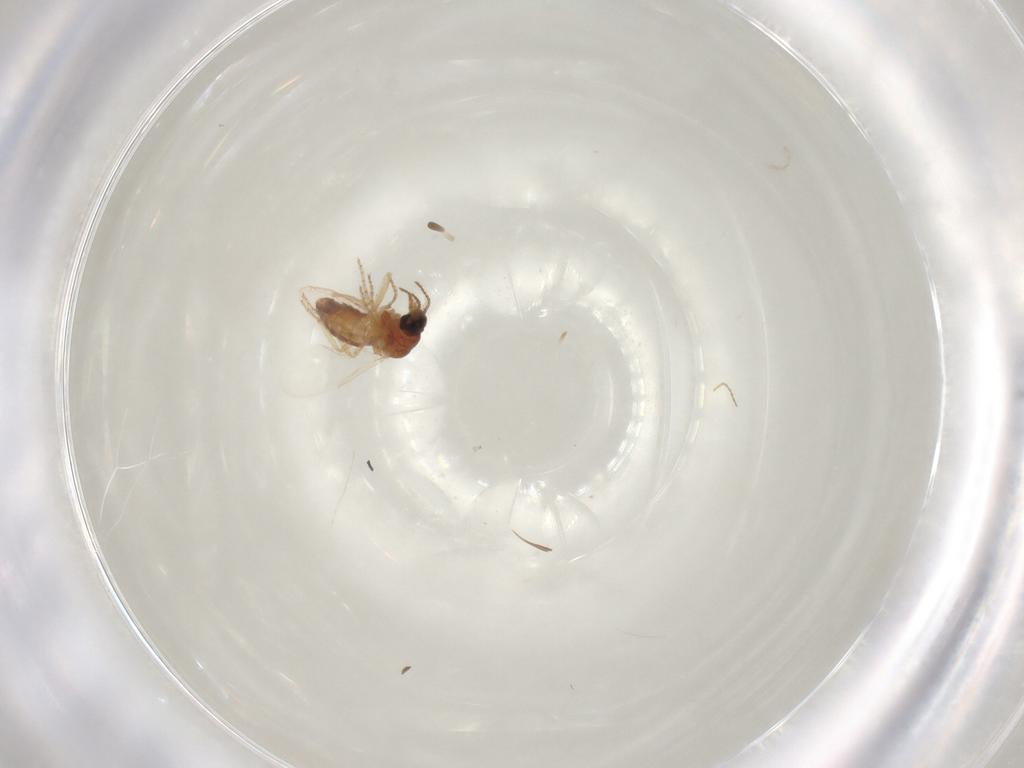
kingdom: Animalia
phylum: Arthropoda
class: Insecta
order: Diptera
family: Ceratopogonidae
